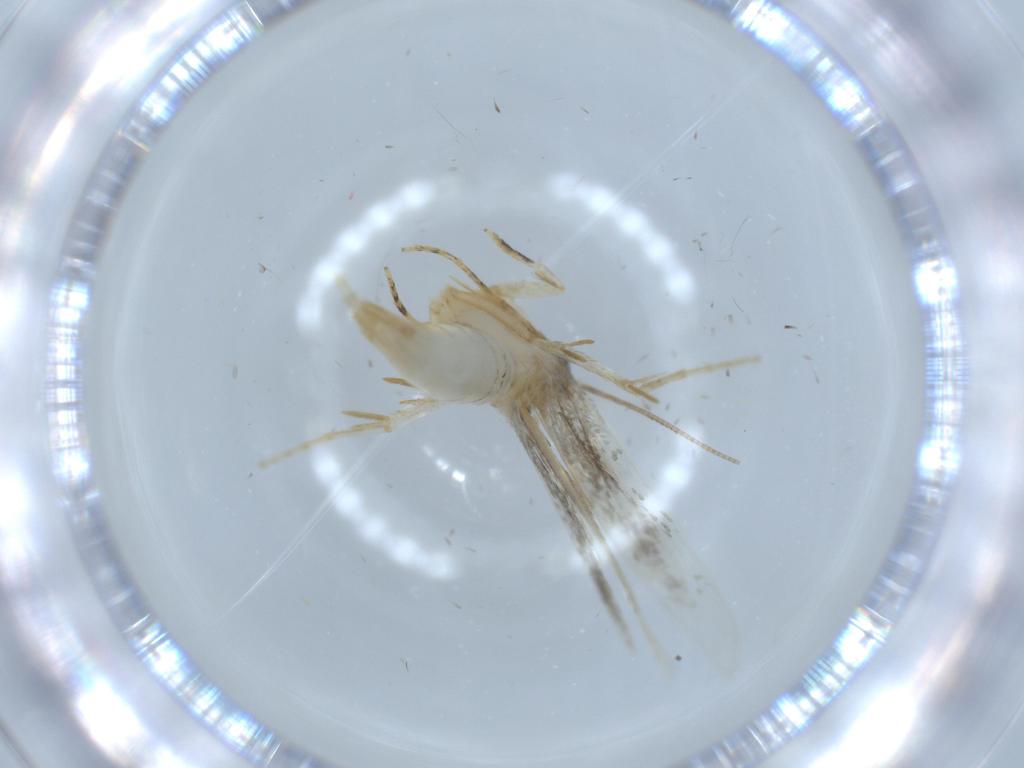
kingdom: Animalia
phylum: Arthropoda
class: Insecta
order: Lepidoptera
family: Tineidae
